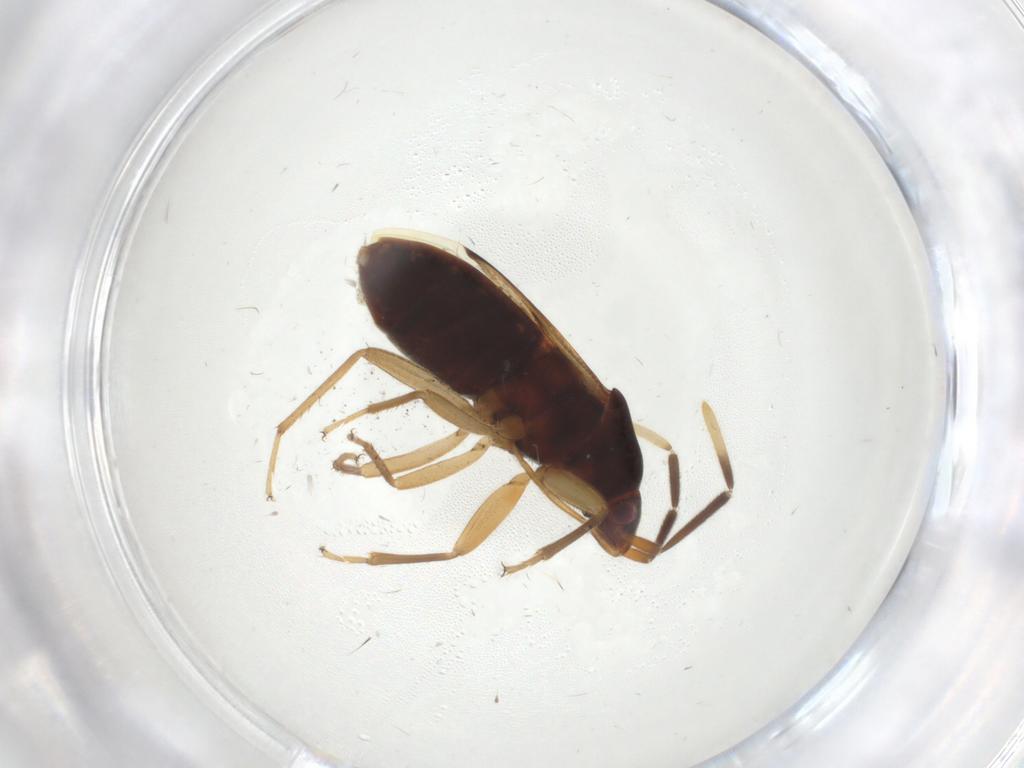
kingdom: Animalia
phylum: Arthropoda
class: Insecta
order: Hemiptera
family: Rhyparochromidae
